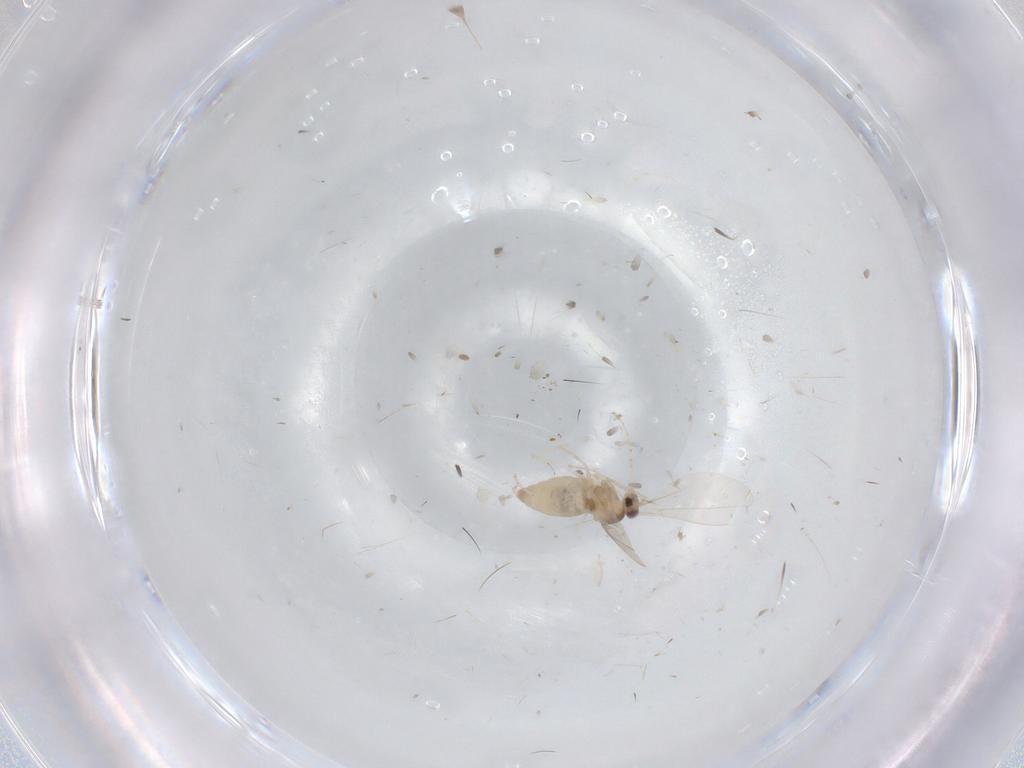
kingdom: Animalia
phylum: Arthropoda
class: Insecta
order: Diptera
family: Cecidomyiidae
